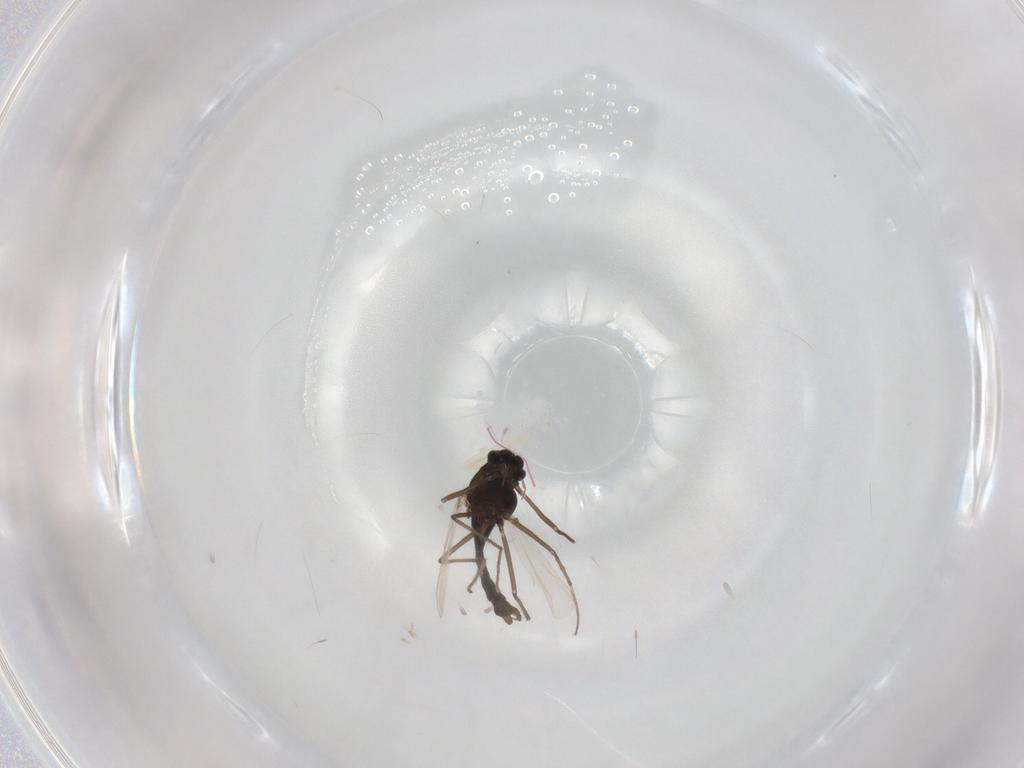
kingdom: Animalia
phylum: Arthropoda
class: Insecta
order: Diptera
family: Chironomidae
